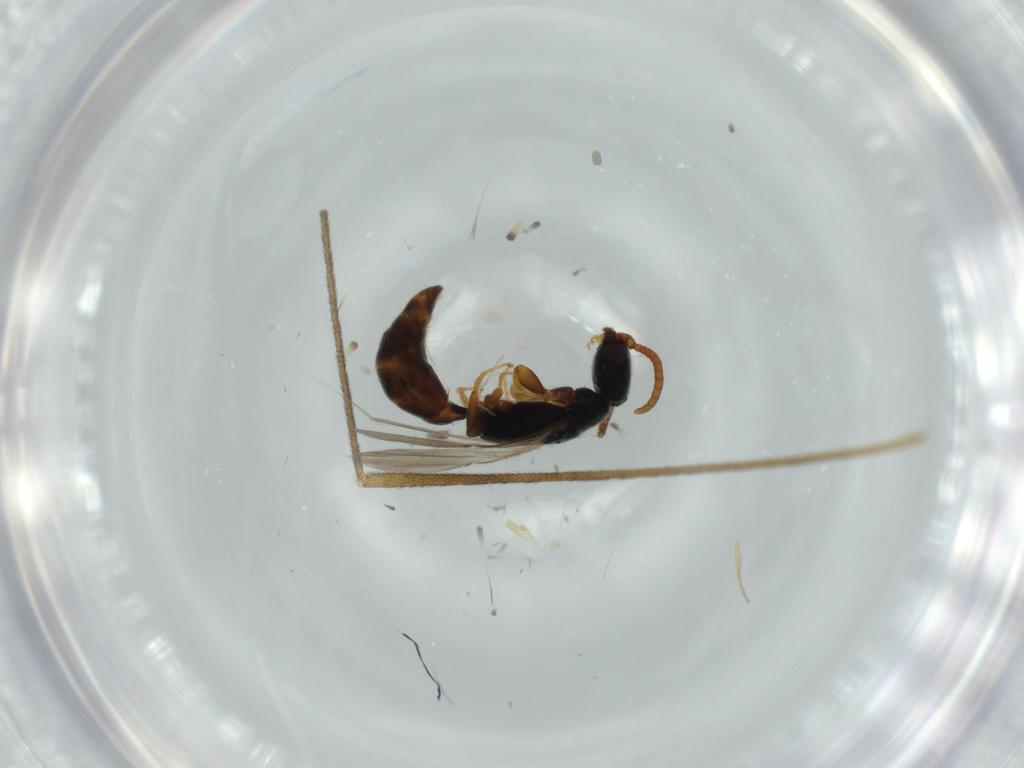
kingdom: Animalia
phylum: Arthropoda
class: Insecta
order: Hymenoptera
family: Bethylidae
